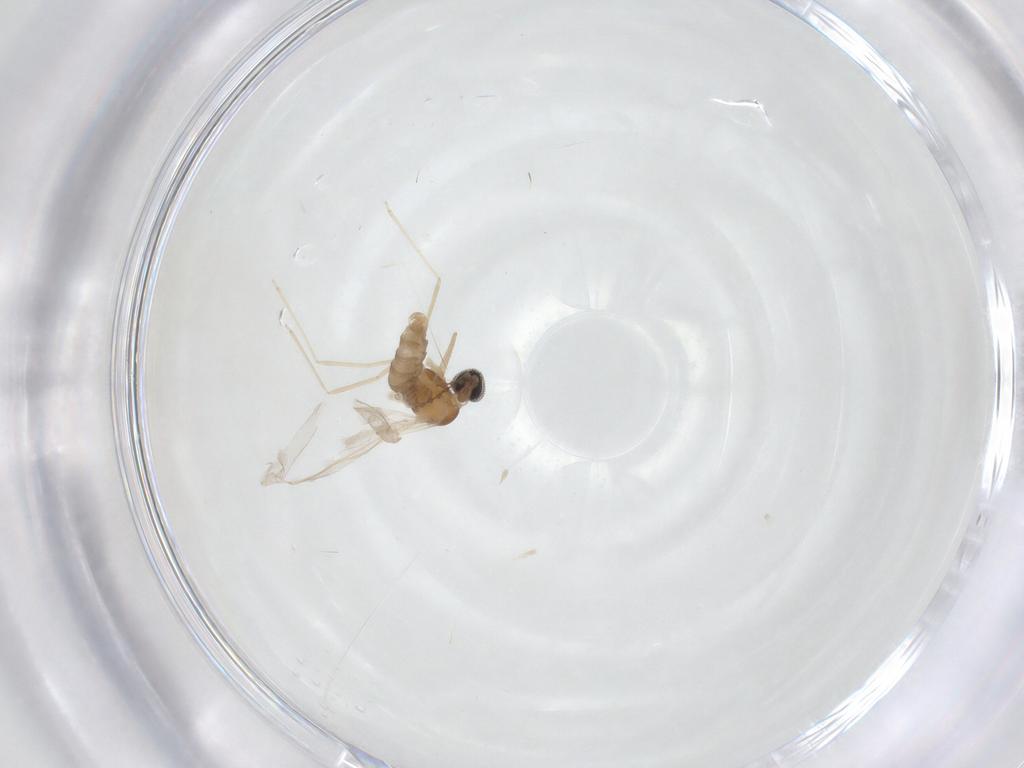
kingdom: Animalia
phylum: Arthropoda
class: Insecta
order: Diptera
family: Cecidomyiidae
